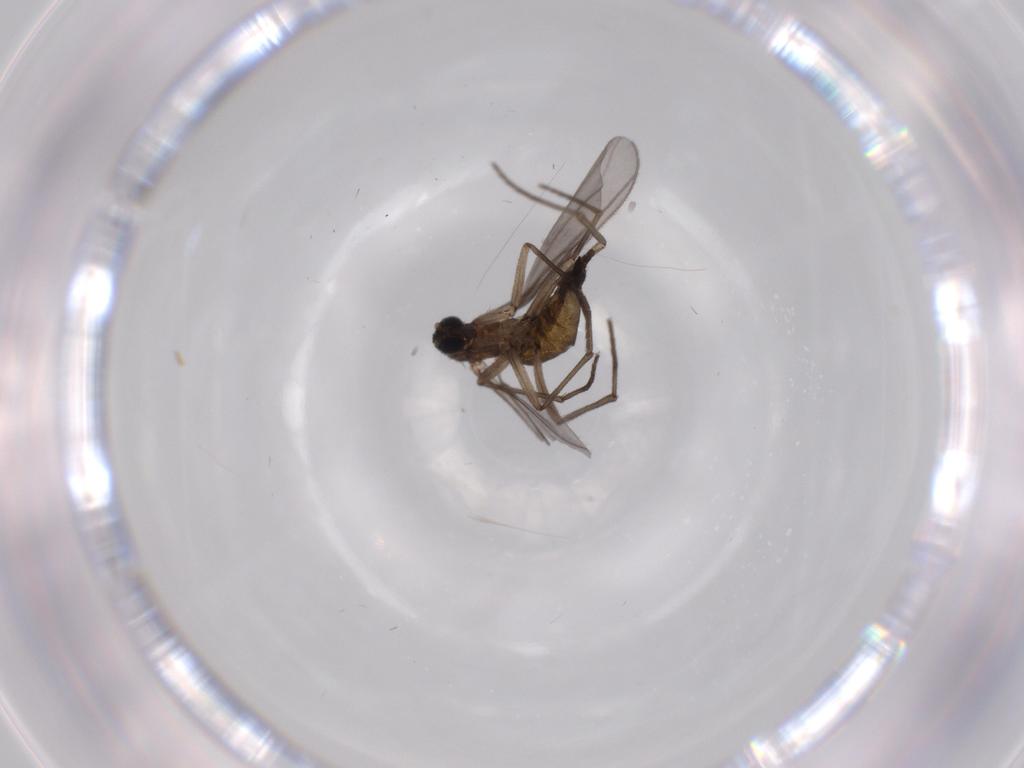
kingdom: Animalia
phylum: Arthropoda
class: Insecta
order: Diptera
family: Sciaridae
